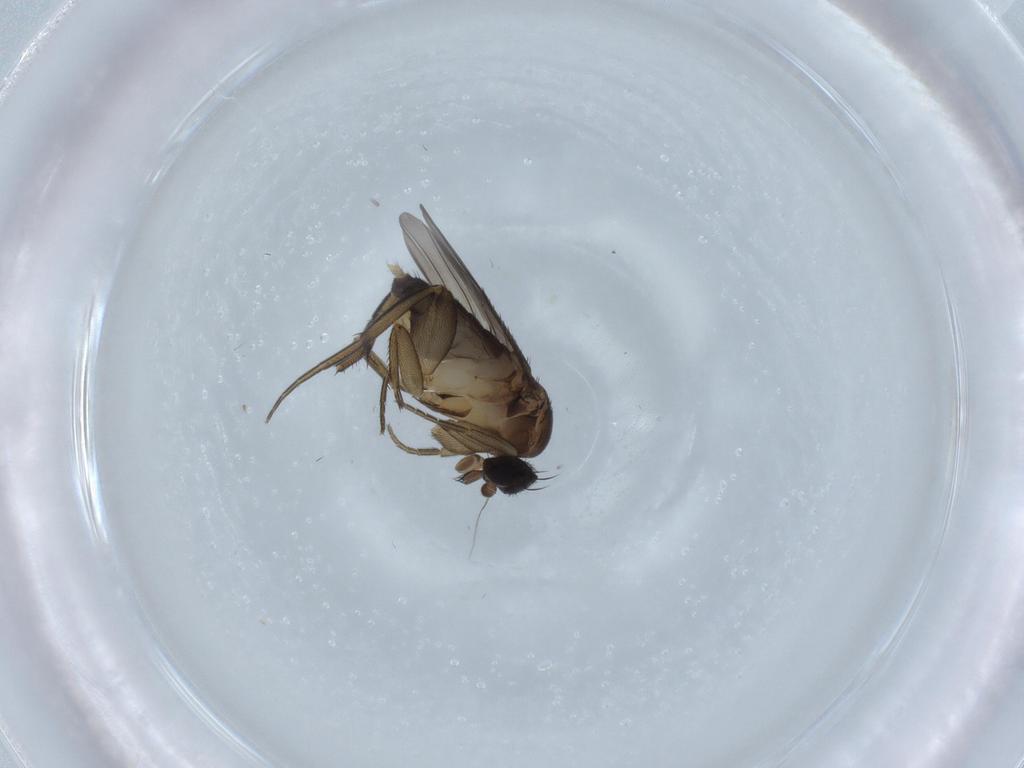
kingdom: Animalia
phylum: Arthropoda
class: Insecta
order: Diptera
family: Phoridae
